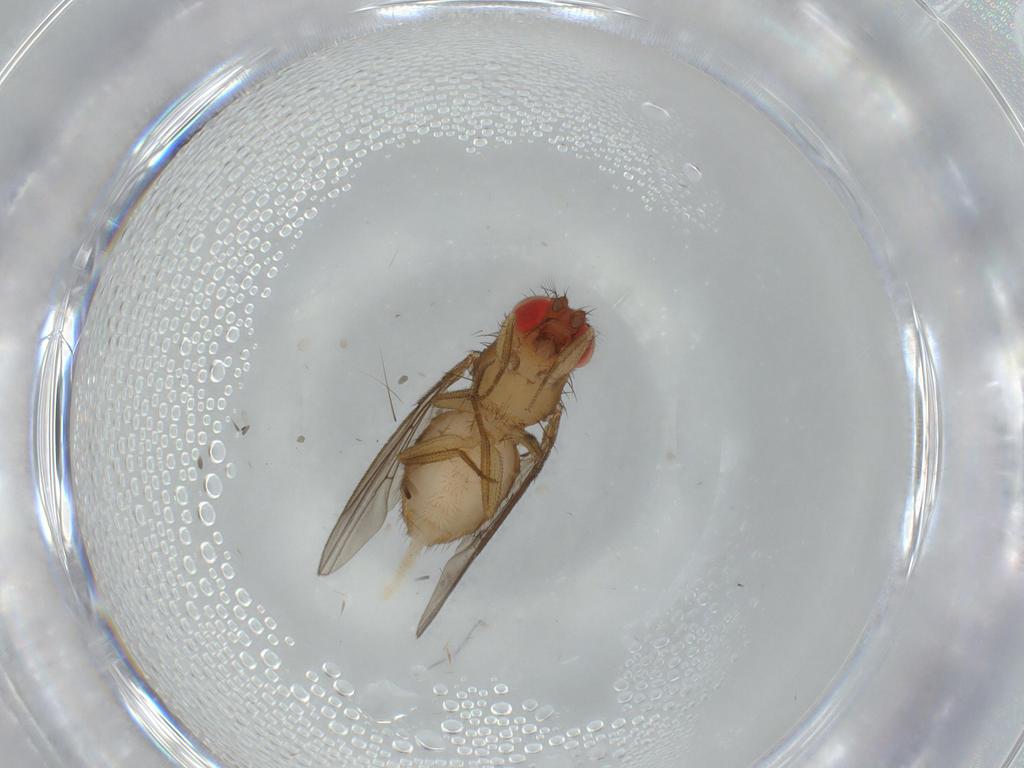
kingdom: Animalia
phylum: Arthropoda
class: Insecta
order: Diptera
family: Drosophilidae
